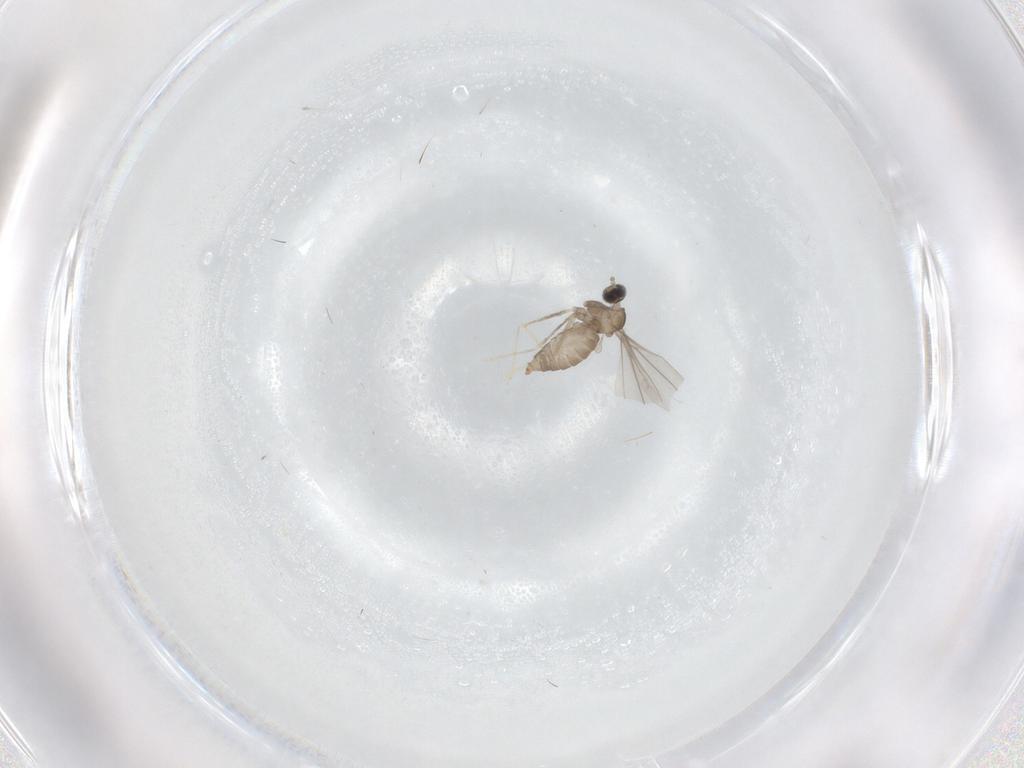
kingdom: Animalia
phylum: Arthropoda
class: Insecta
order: Diptera
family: Cecidomyiidae
